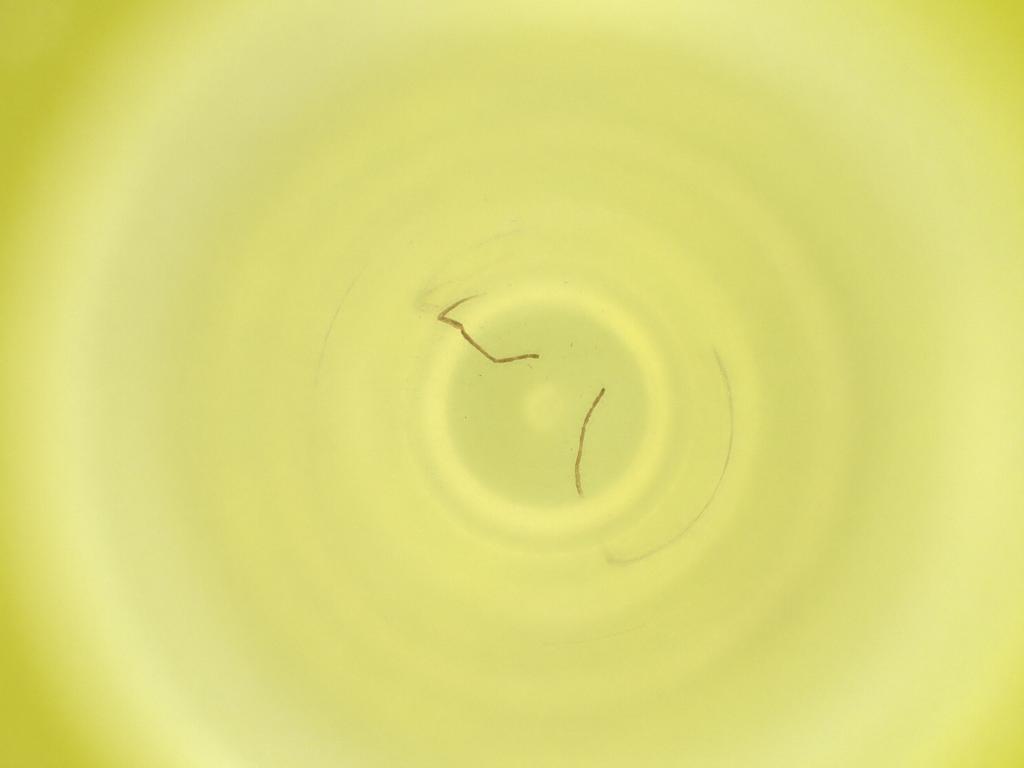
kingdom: Animalia
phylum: Arthropoda
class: Insecta
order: Diptera
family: Cecidomyiidae
